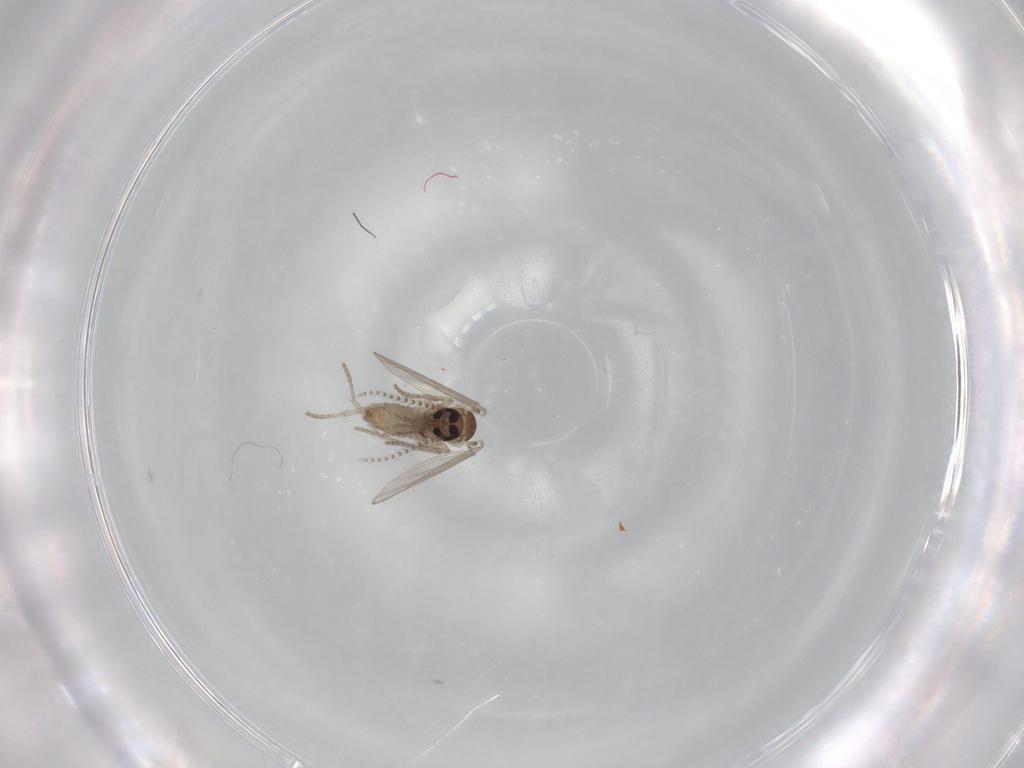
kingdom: Animalia
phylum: Arthropoda
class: Insecta
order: Diptera
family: Psychodidae
